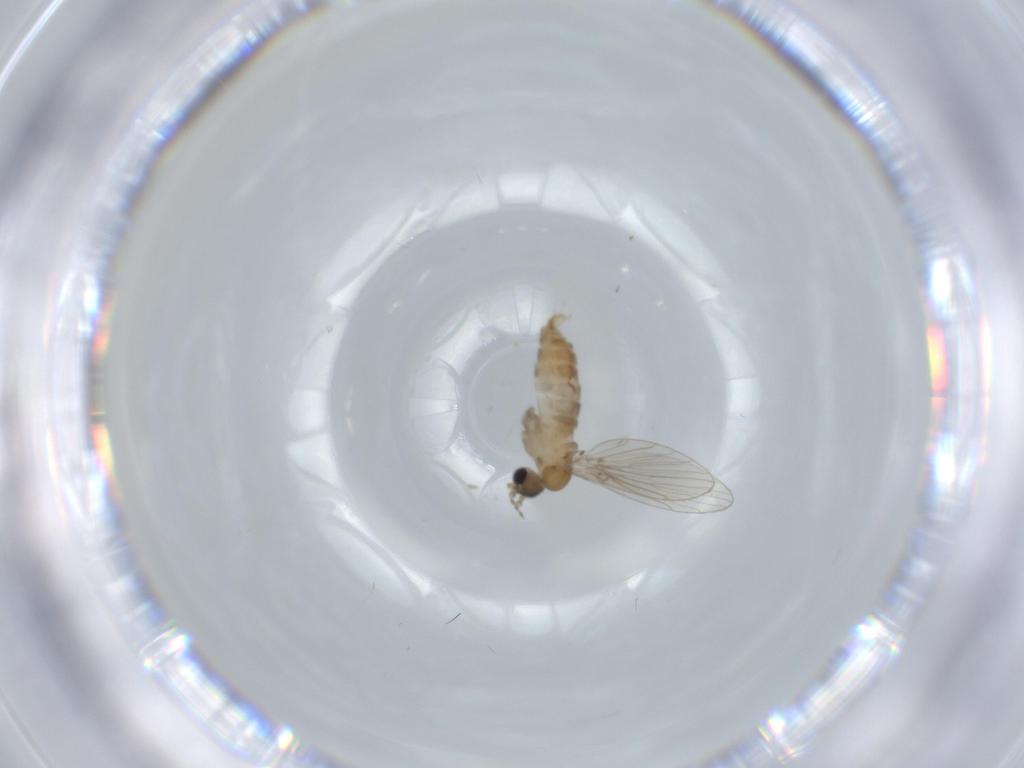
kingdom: Animalia
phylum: Arthropoda
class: Insecta
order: Diptera
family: Psychodidae
